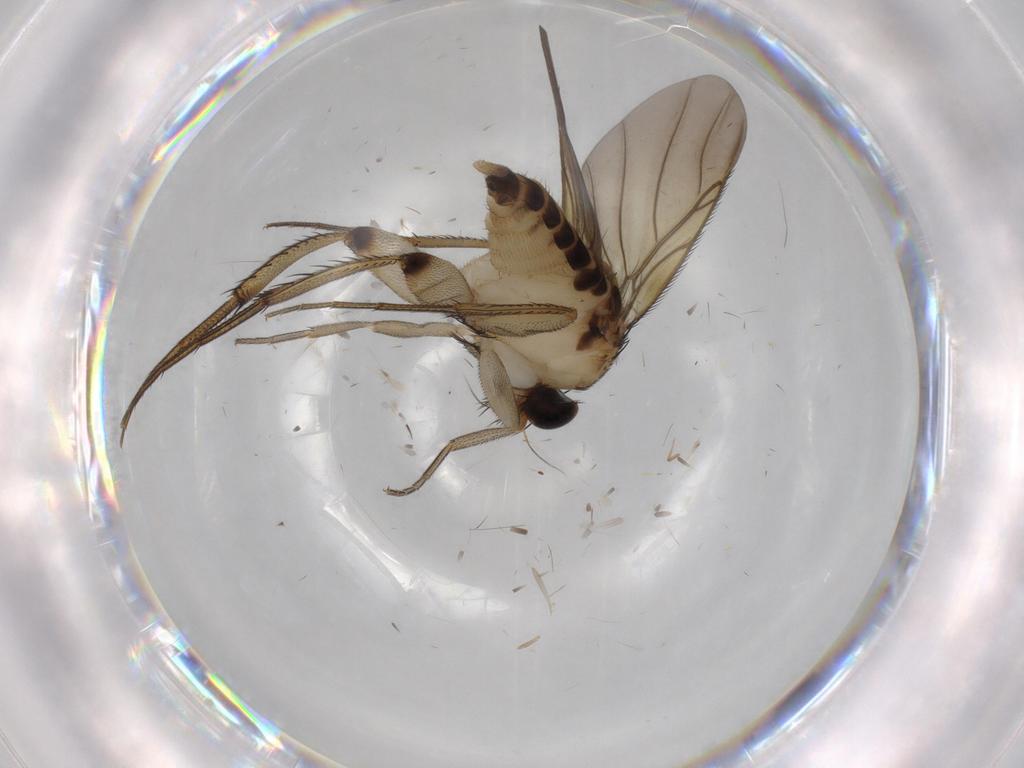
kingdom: Animalia
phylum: Arthropoda
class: Insecta
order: Diptera
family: Phoridae
